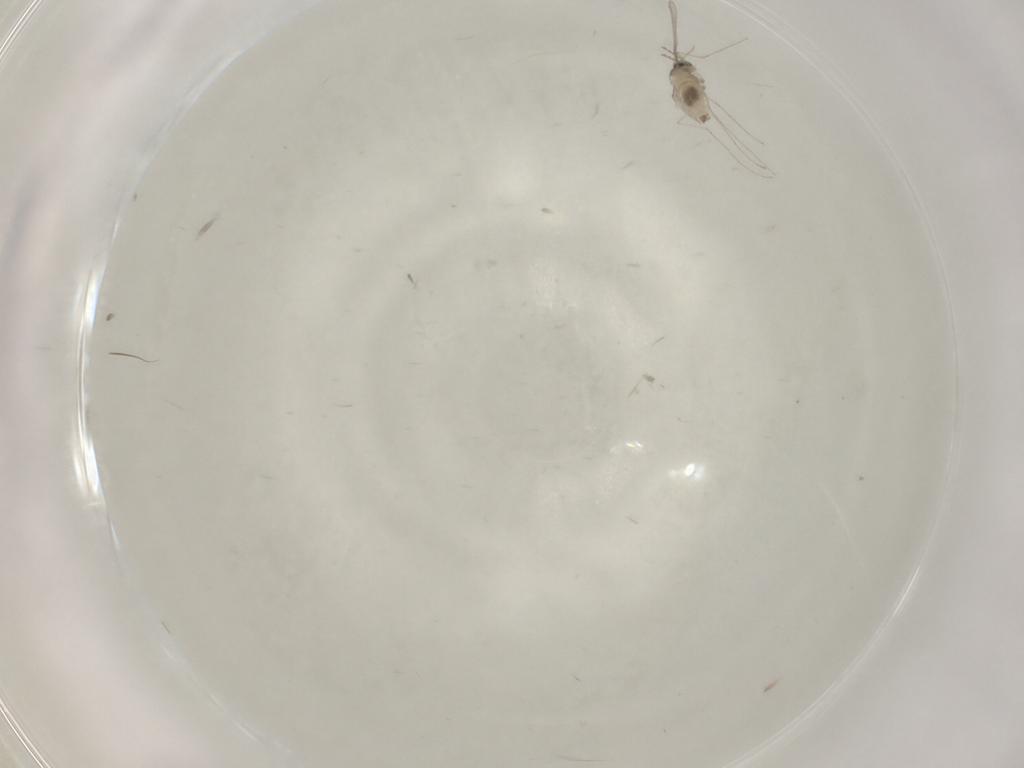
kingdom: Animalia
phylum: Arthropoda
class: Insecta
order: Diptera
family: Cecidomyiidae
